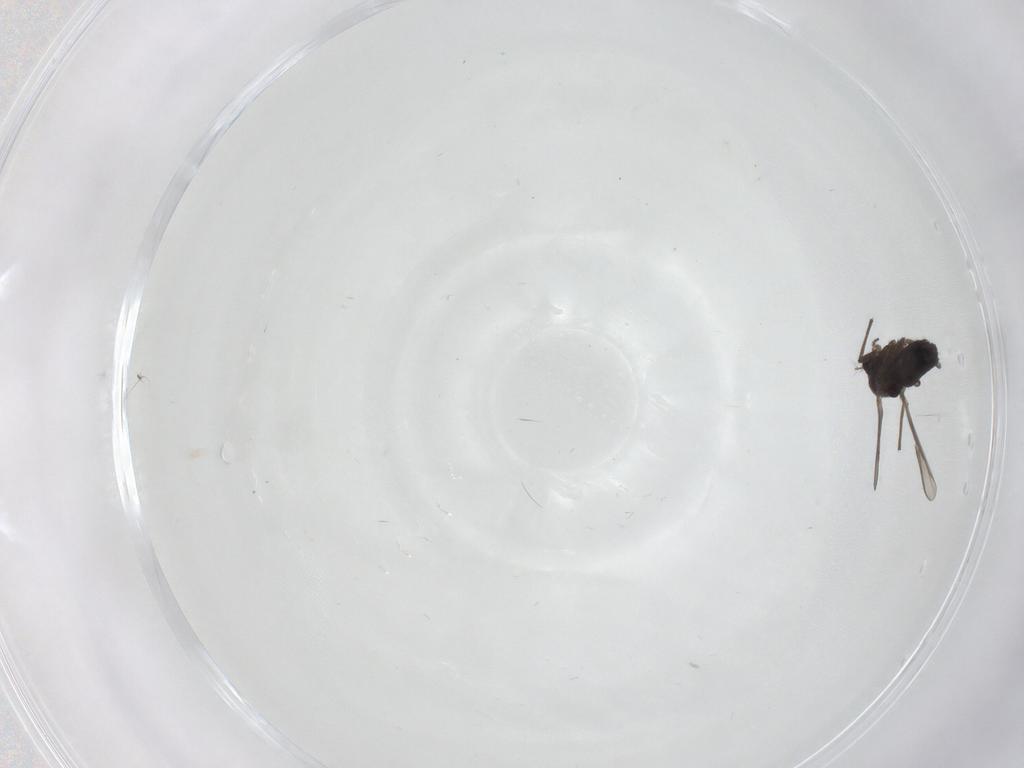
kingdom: Animalia
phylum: Arthropoda
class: Insecta
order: Diptera
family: Chironomidae
